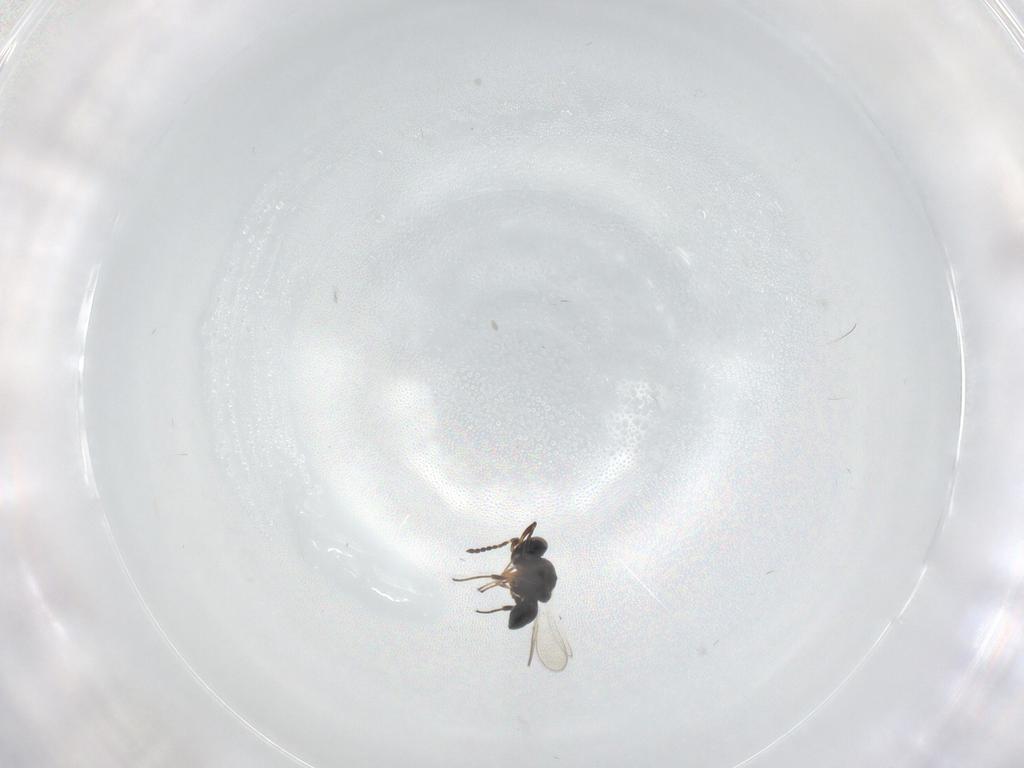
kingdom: Animalia
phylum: Arthropoda
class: Insecta
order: Hymenoptera
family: Platygastridae
